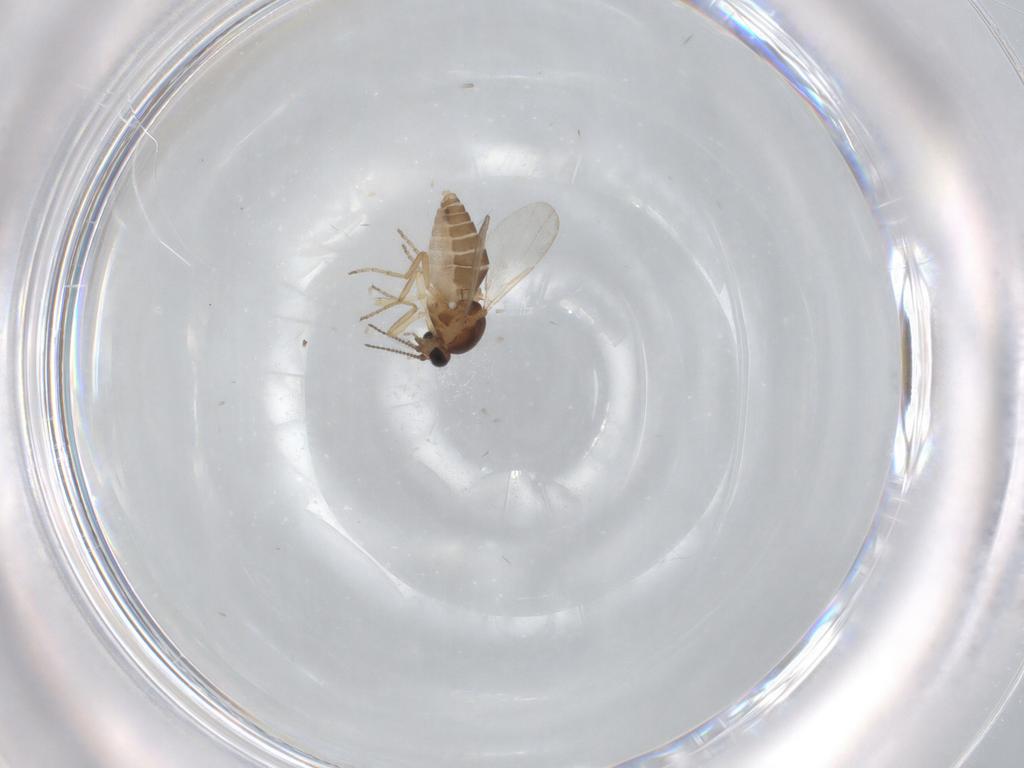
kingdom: Animalia
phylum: Arthropoda
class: Insecta
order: Diptera
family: Ceratopogonidae
